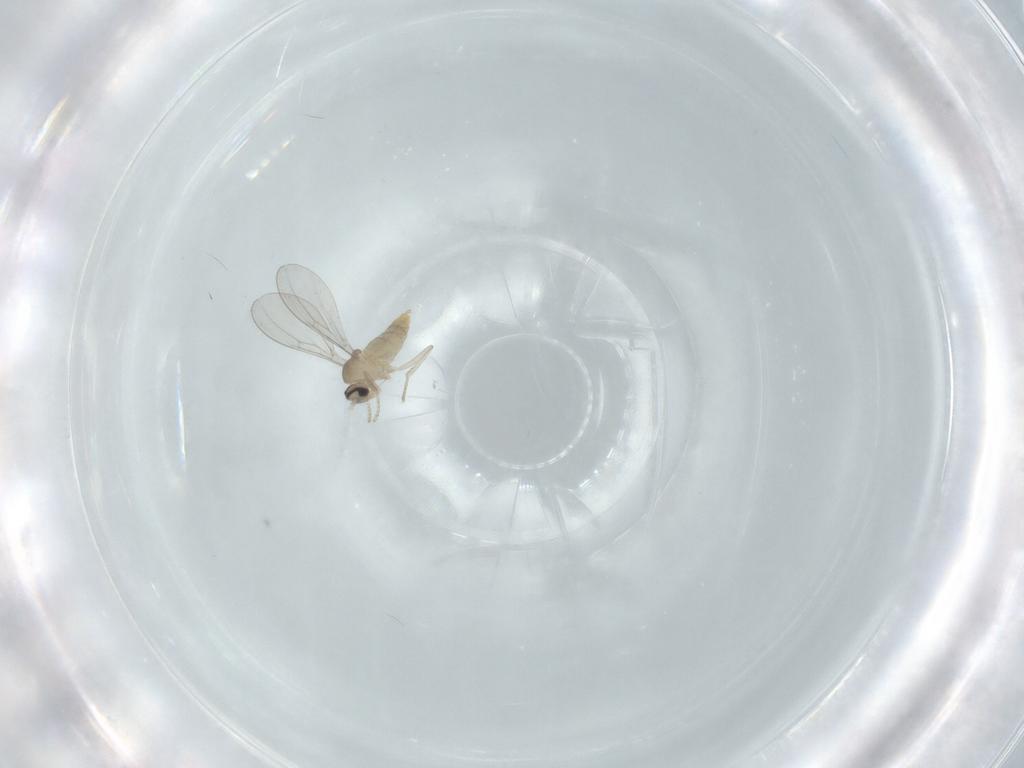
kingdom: Animalia
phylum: Arthropoda
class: Insecta
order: Diptera
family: Cecidomyiidae
